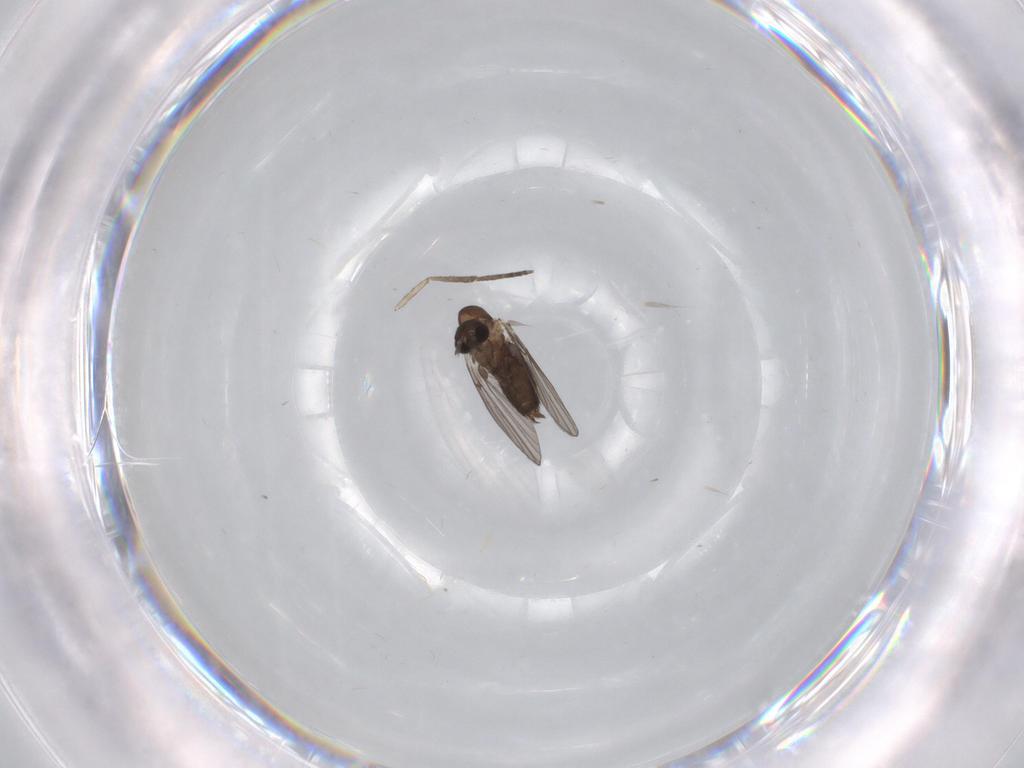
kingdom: Animalia
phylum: Arthropoda
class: Insecta
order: Diptera
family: Psychodidae
